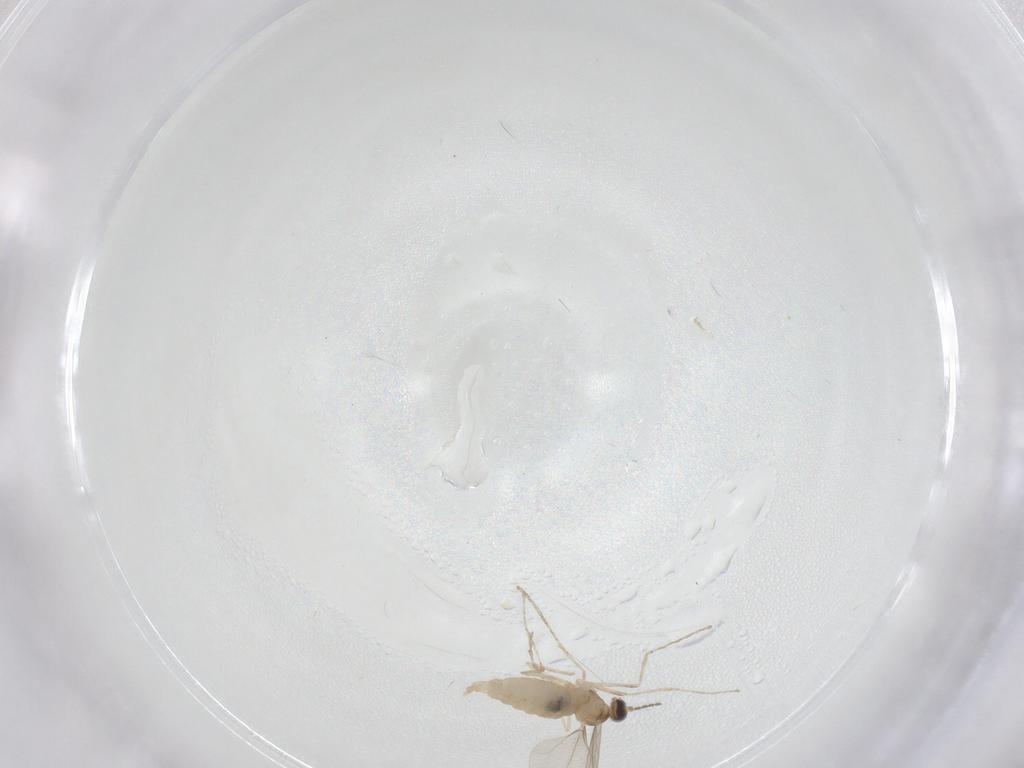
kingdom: Animalia
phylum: Arthropoda
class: Insecta
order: Diptera
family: Cecidomyiidae
